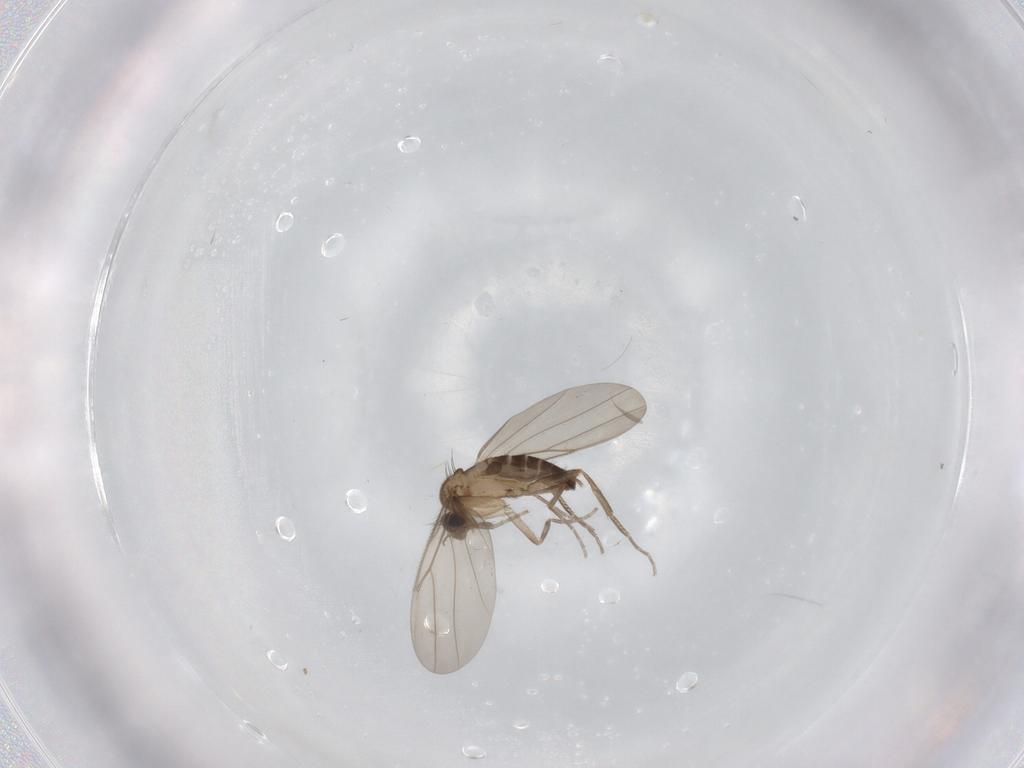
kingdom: Animalia
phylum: Arthropoda
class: Insecta
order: Diptera
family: Phoridae
